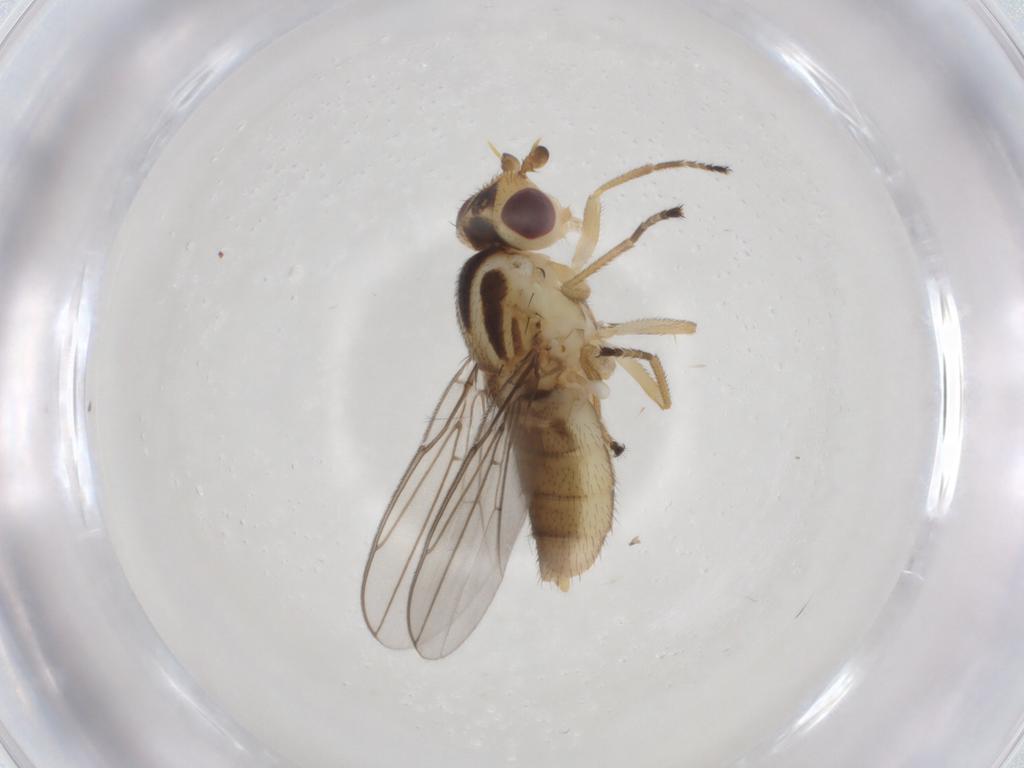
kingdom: Animalia
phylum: Arthropoda
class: Insecta
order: Diptera
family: Chloropidae
